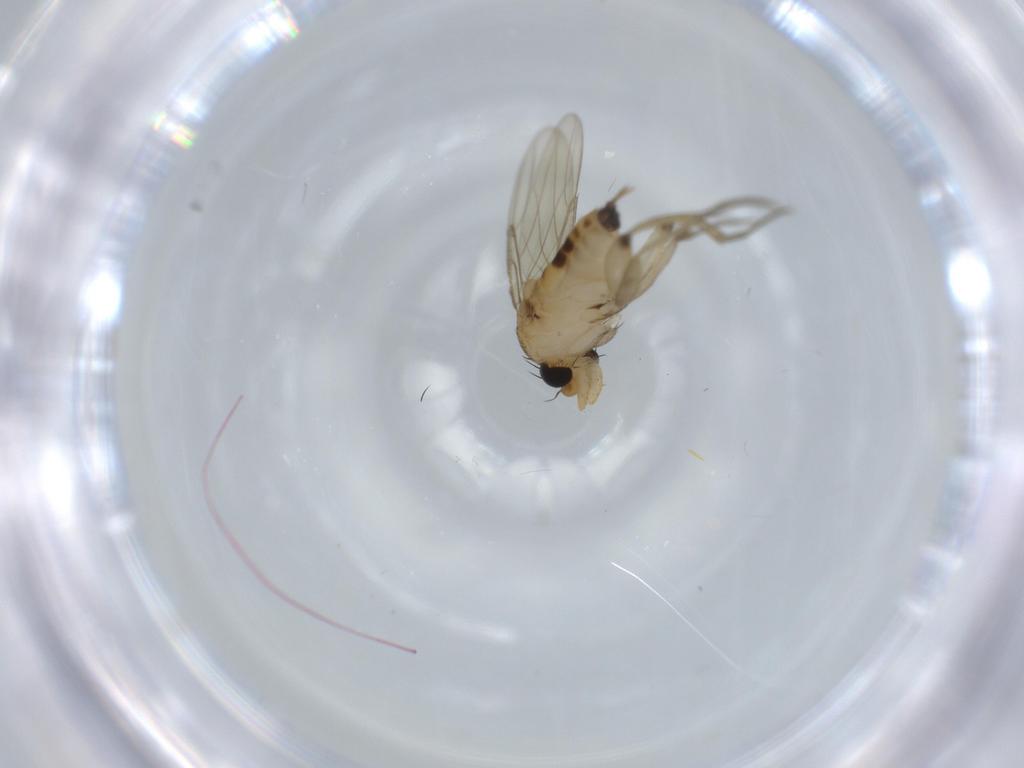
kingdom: Animalia
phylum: Arthropoda
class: Insecta
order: Diptera
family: Phoridae
